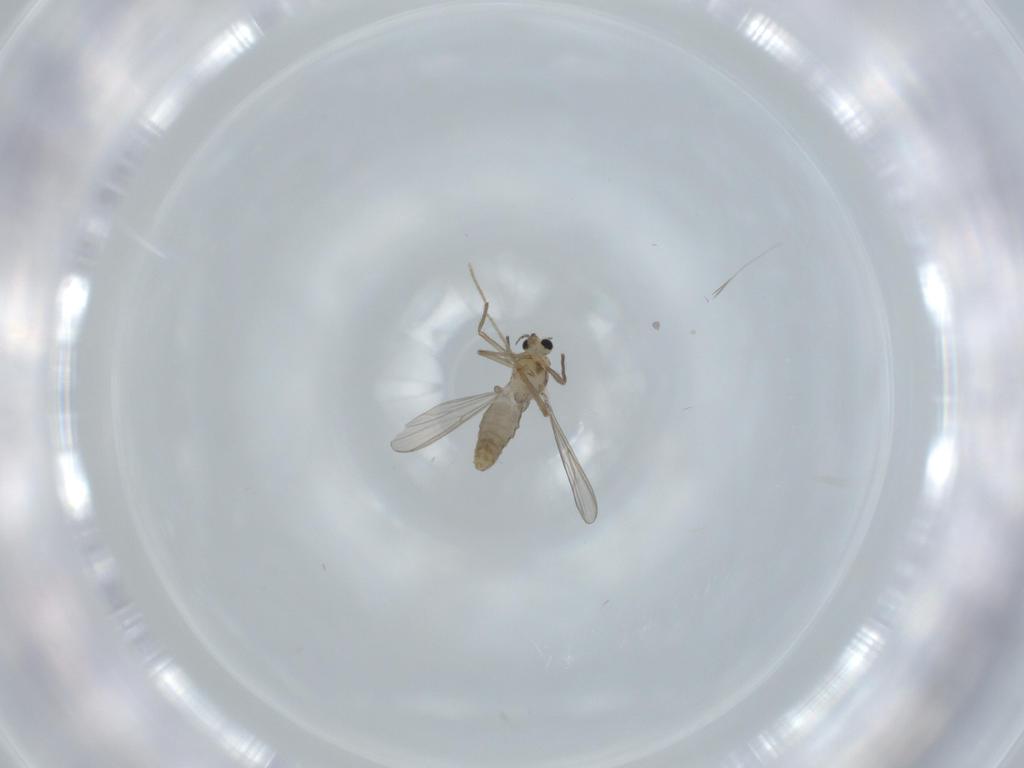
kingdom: Animalia
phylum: Arthropoda
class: Insecta
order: Diptera
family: Chironomidae
